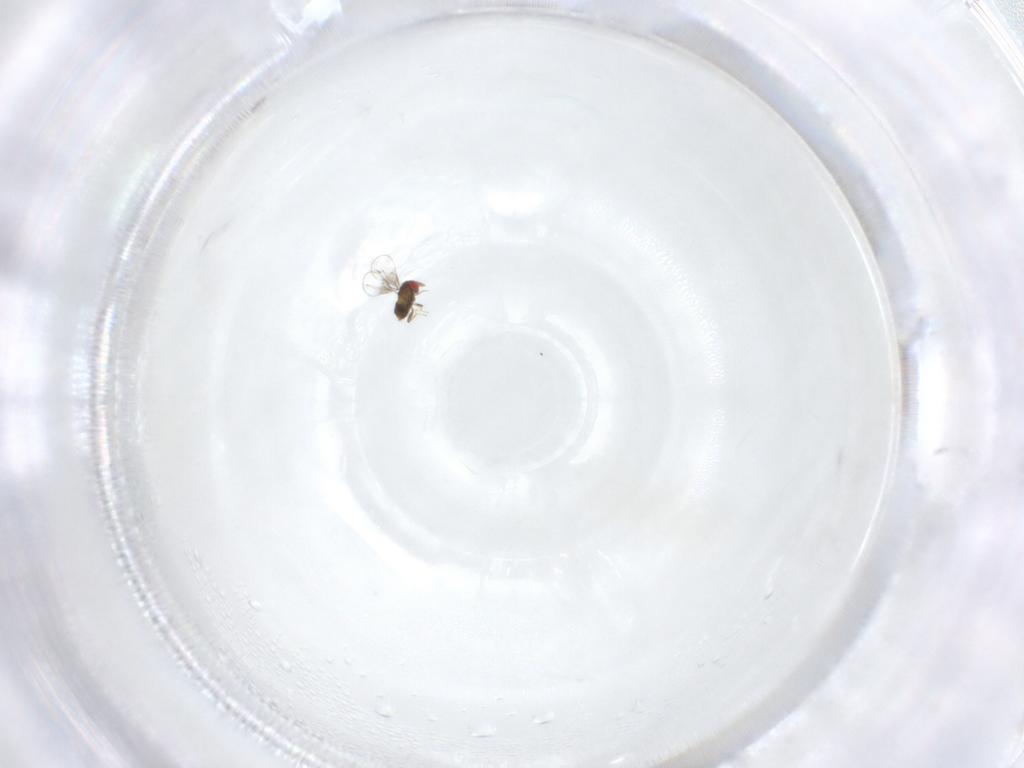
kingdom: Animalia
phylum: Arthropoda
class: Insecta
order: Hymenoptera
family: Trichogrammatidae
